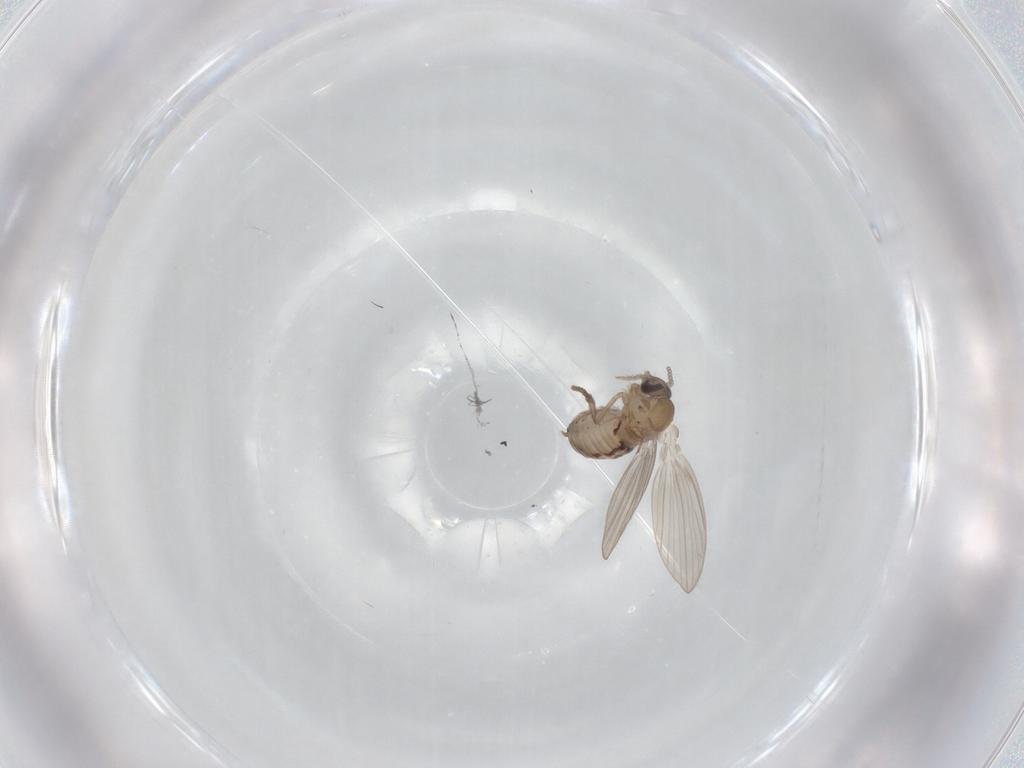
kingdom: Animalia
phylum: Arthropoda
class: Insecta
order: Diptera
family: Psychodidae
